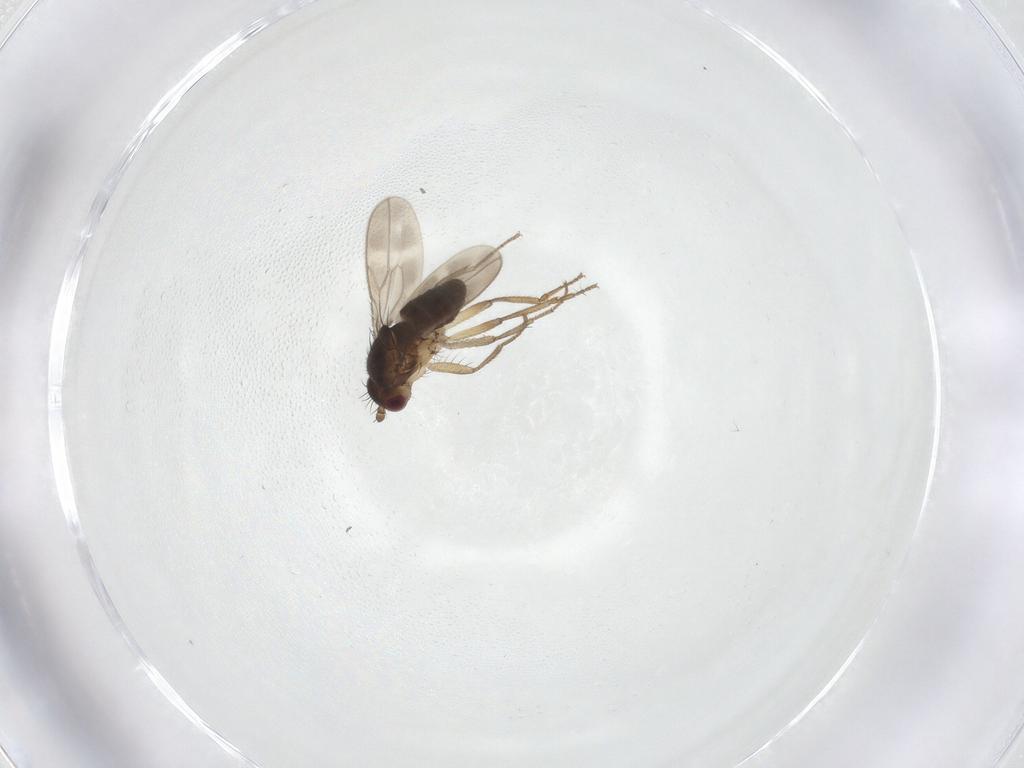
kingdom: Animalia
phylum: Arthropoda
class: Insecta
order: Diptera
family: Sphaeroceridae
